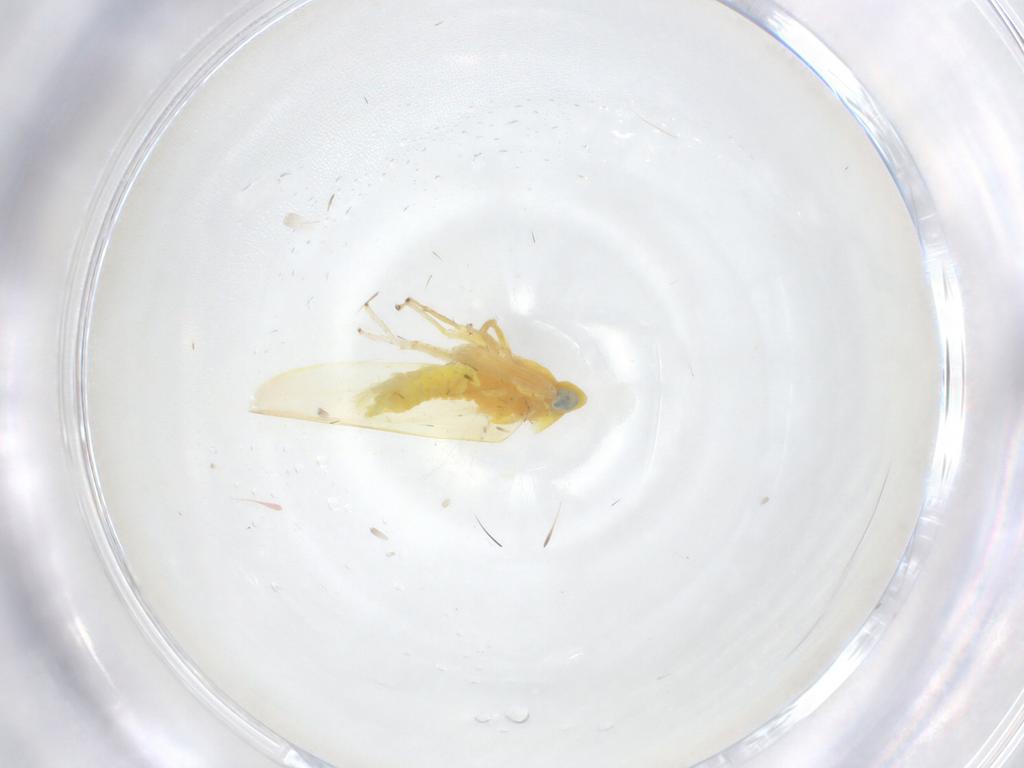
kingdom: Animalia
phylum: Arthropoda
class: Insecta
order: Hemiptera
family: Cicadellidae
